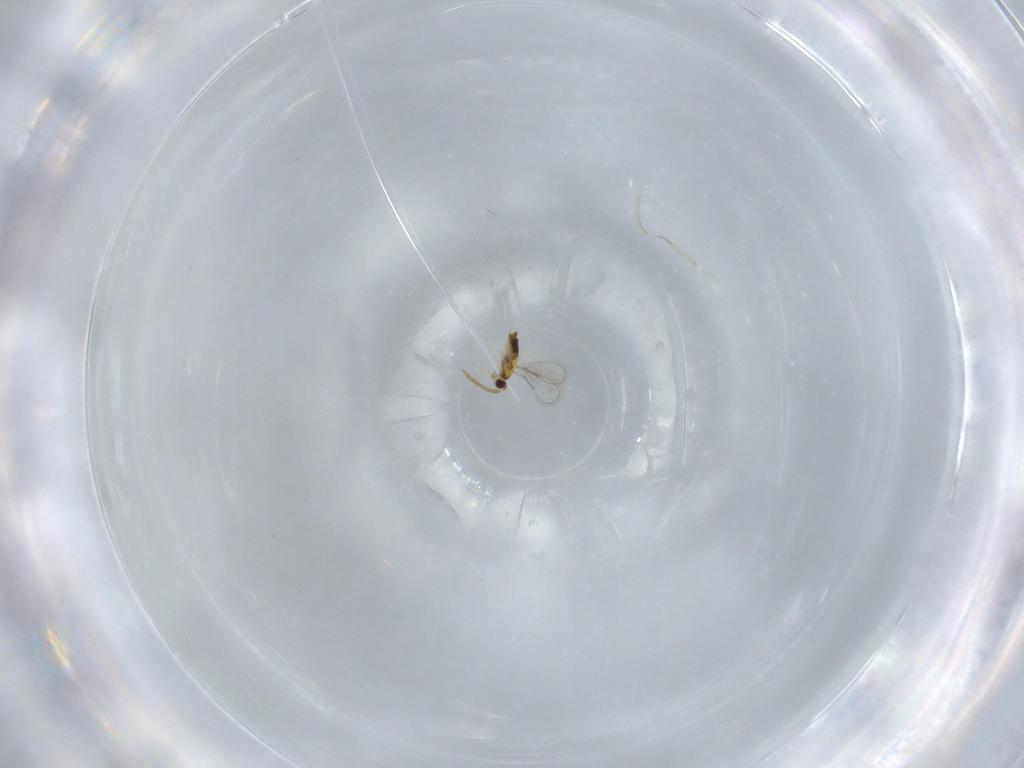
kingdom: Animalia
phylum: Arthropoda
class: Insecta
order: Hymenoptera
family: Aphelinidae
